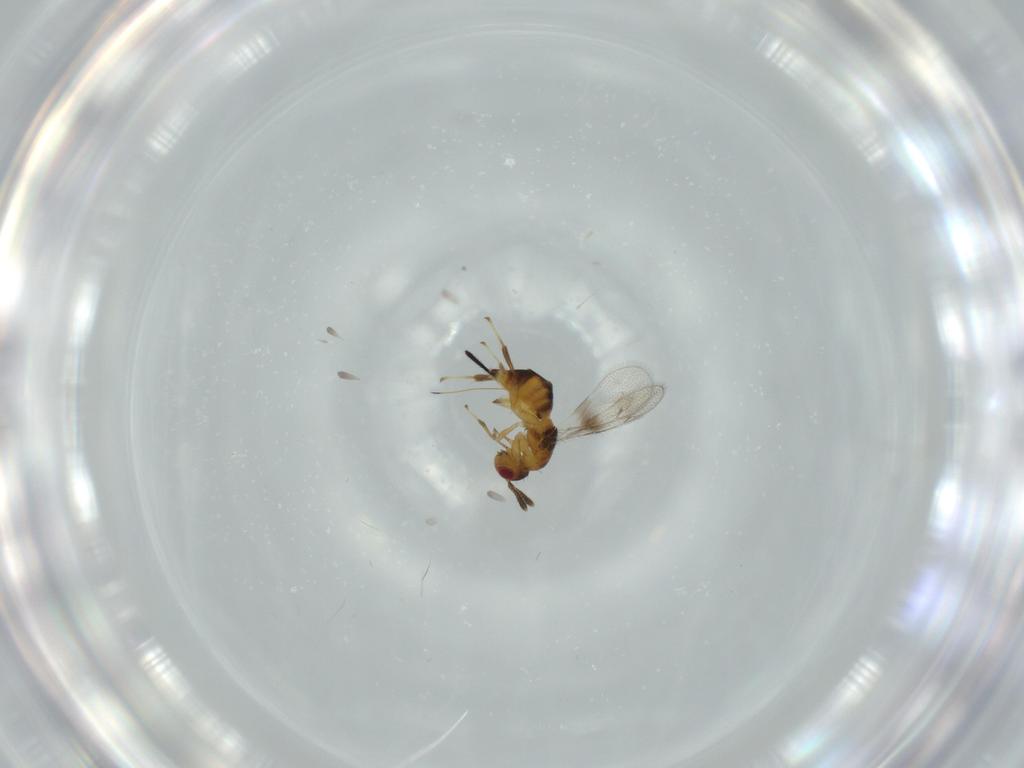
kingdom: Animalia
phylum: Arthropoda
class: Insecta
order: Hymenoptera
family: Torymidae
